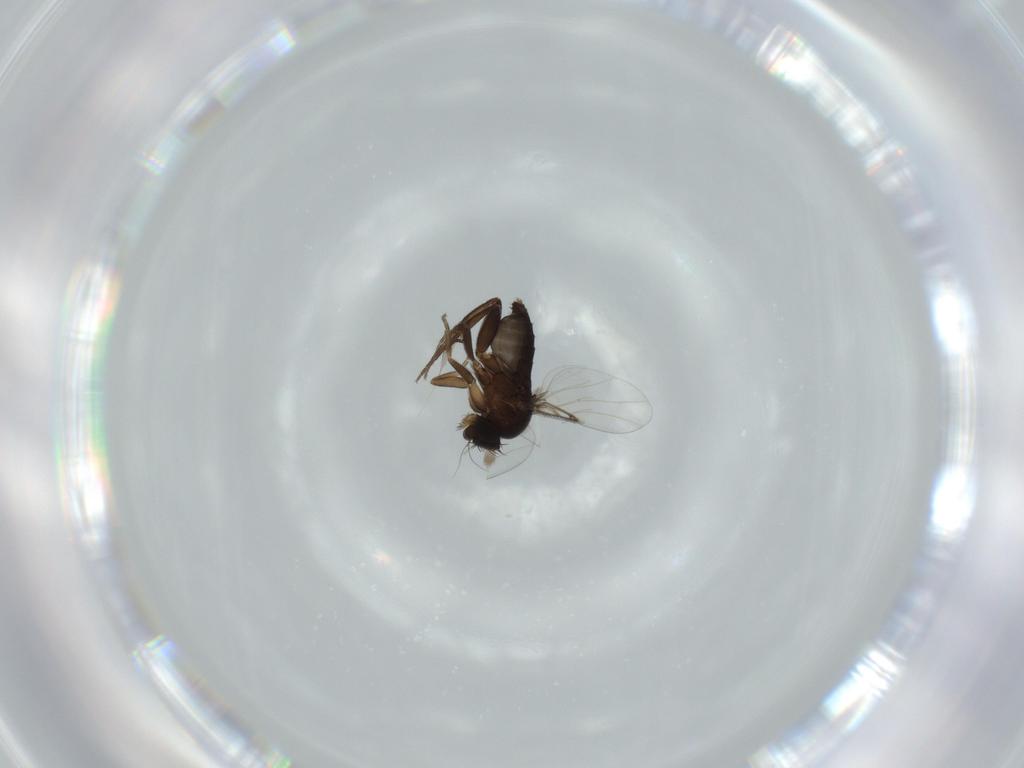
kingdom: Animalia
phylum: Arthropoda
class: Insecta
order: Diptera
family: Phoridae
